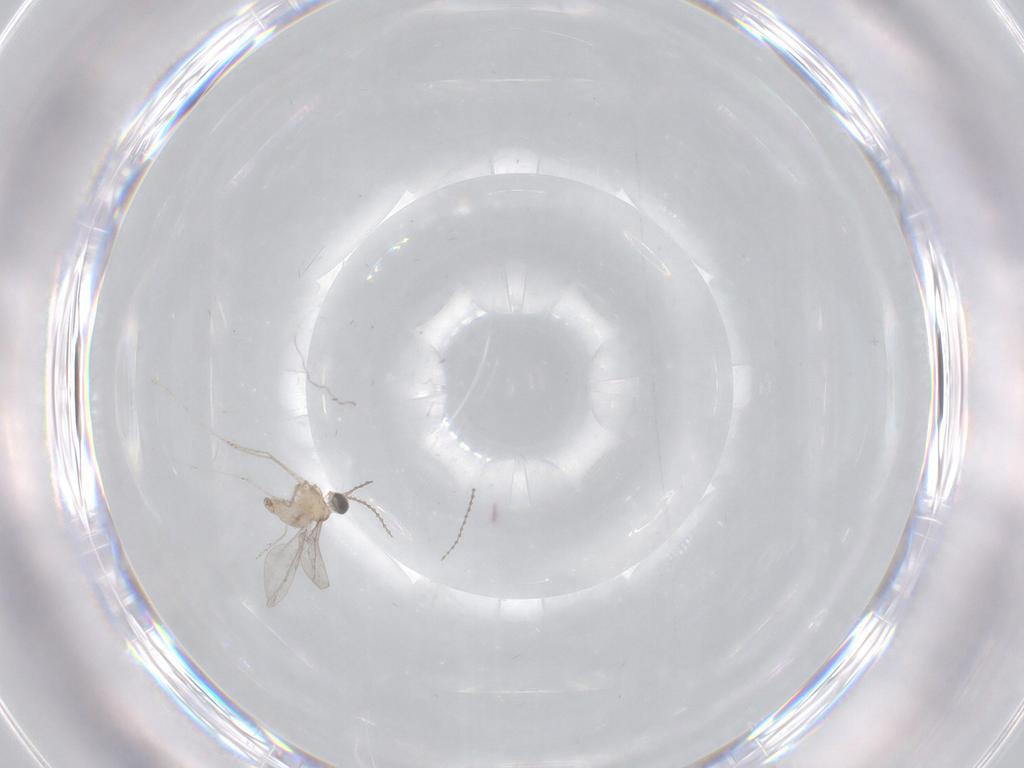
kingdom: Animalia
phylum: Arthropoda
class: Insecta
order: Diptera
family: Cecidomyiidae
